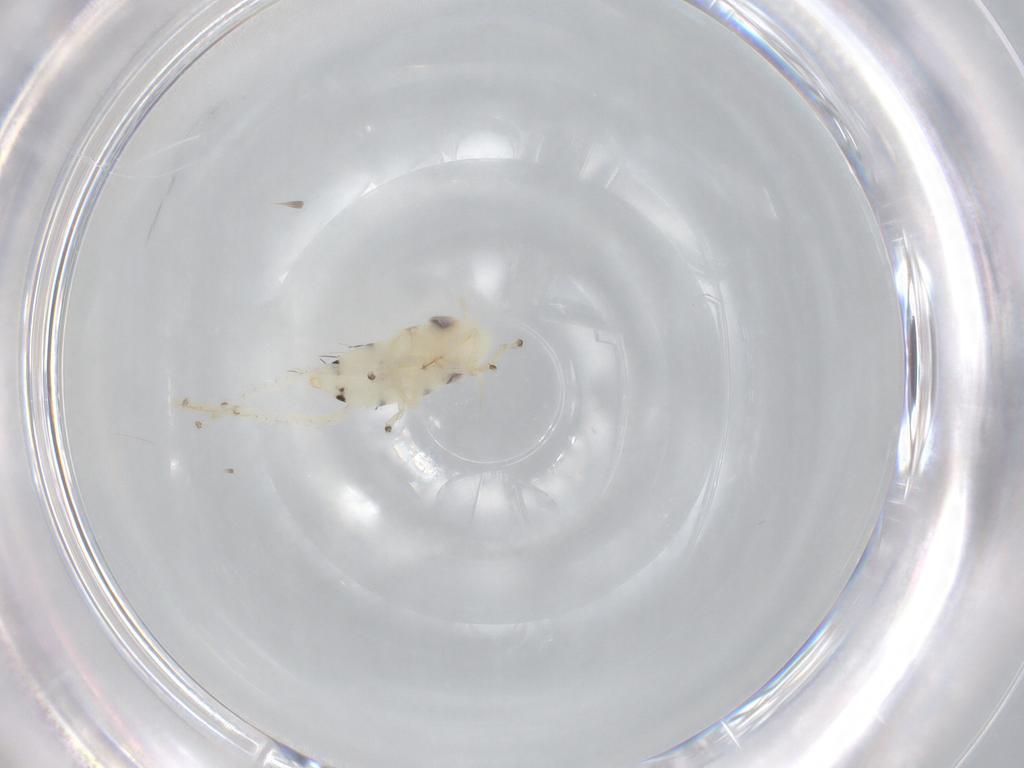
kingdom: Animalia
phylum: Arthropoda
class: Insecta
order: Hemiptera
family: Cicadellidae
